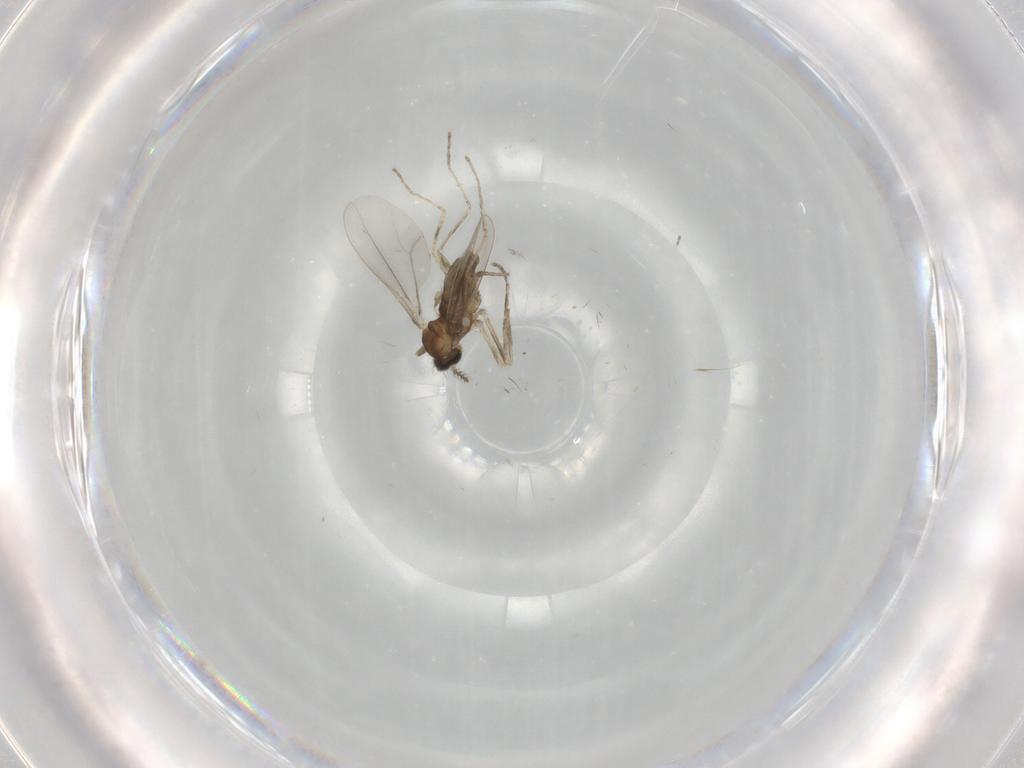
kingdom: Animalia
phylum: Arthropoda
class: Insecta
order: Diptera
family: Cecidomyiidae
